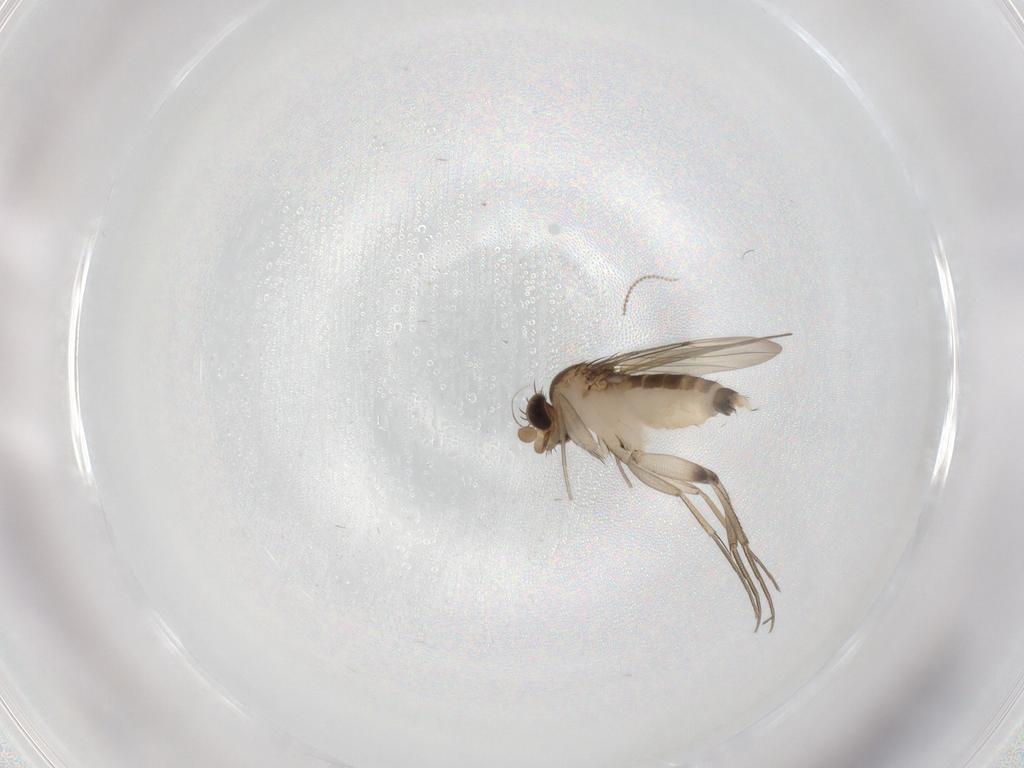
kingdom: Animalia
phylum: Arthropoda
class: Insecta
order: Diptera
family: Cecidomyiidae
